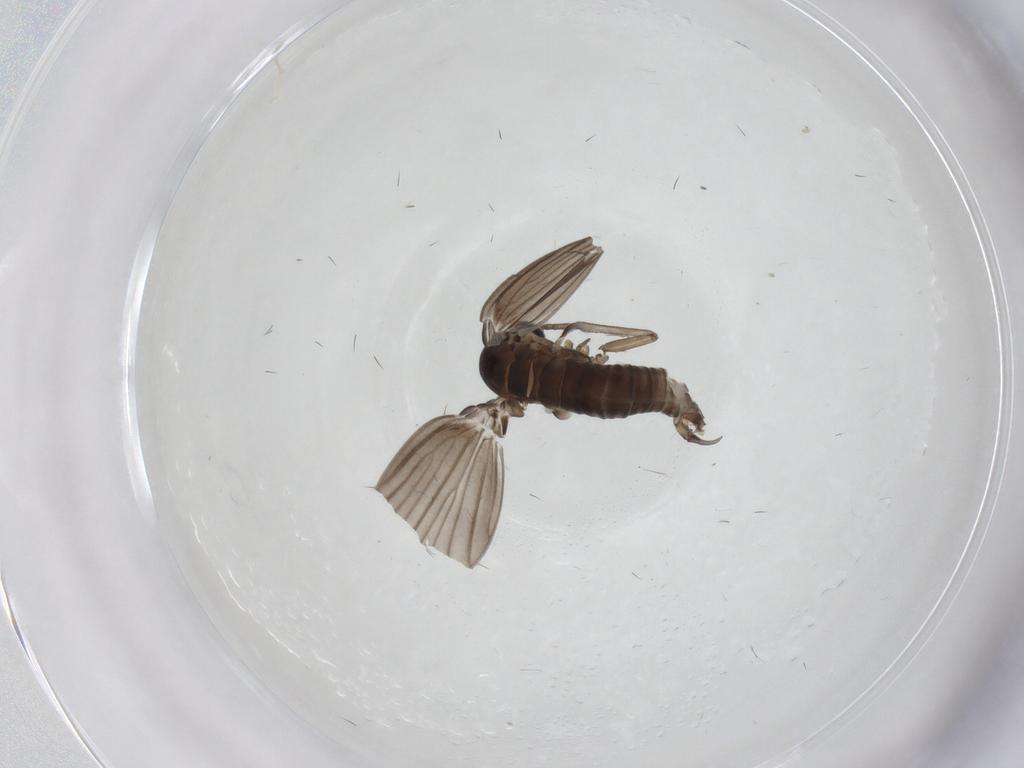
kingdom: Animalia
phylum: Arthropoda
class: Insecta
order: Diptera
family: Psychodidae
